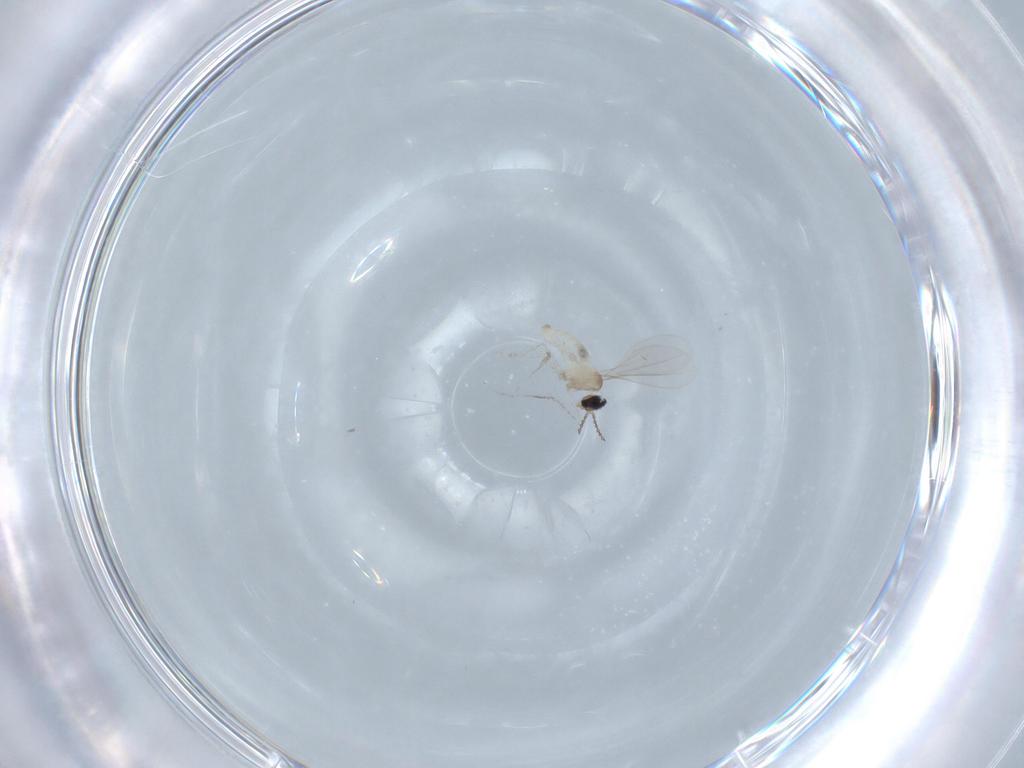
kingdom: Animalia
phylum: Arthropoda
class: Insecta
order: Diptera
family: Cecidomyiidae
